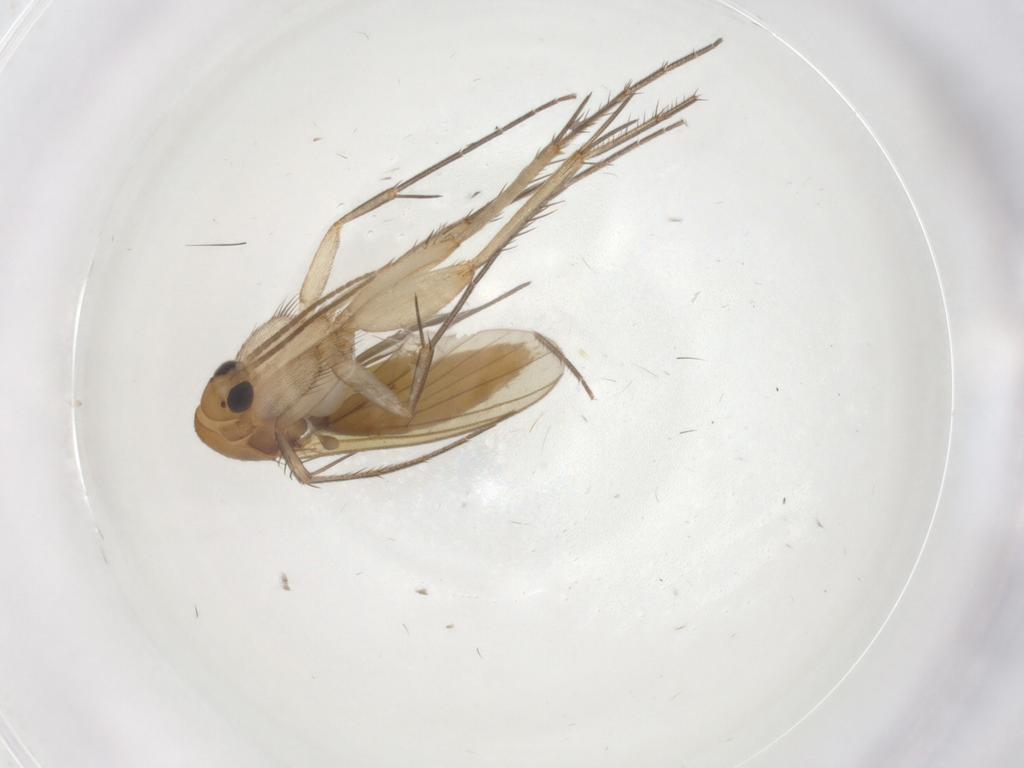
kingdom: Animalia
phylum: Arthropoda
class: Insecta
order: Diptera
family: Mycetophilidae
